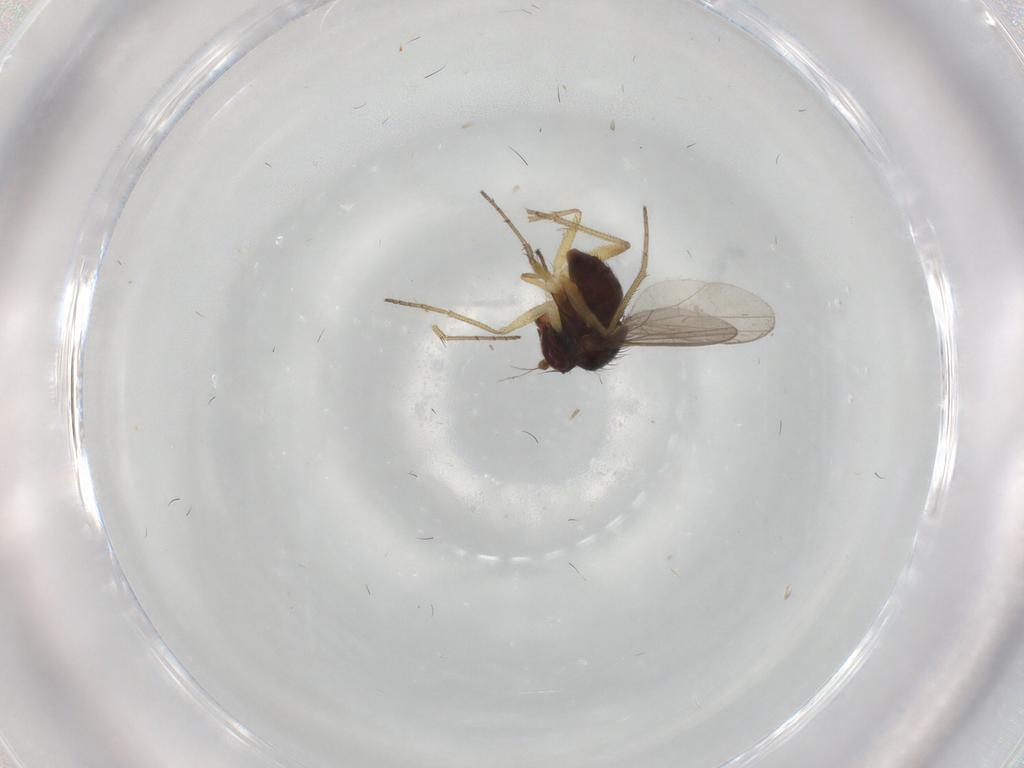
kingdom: Animalia
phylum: Arthropoda
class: Insecta
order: Diptera
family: Dolichopodidae
